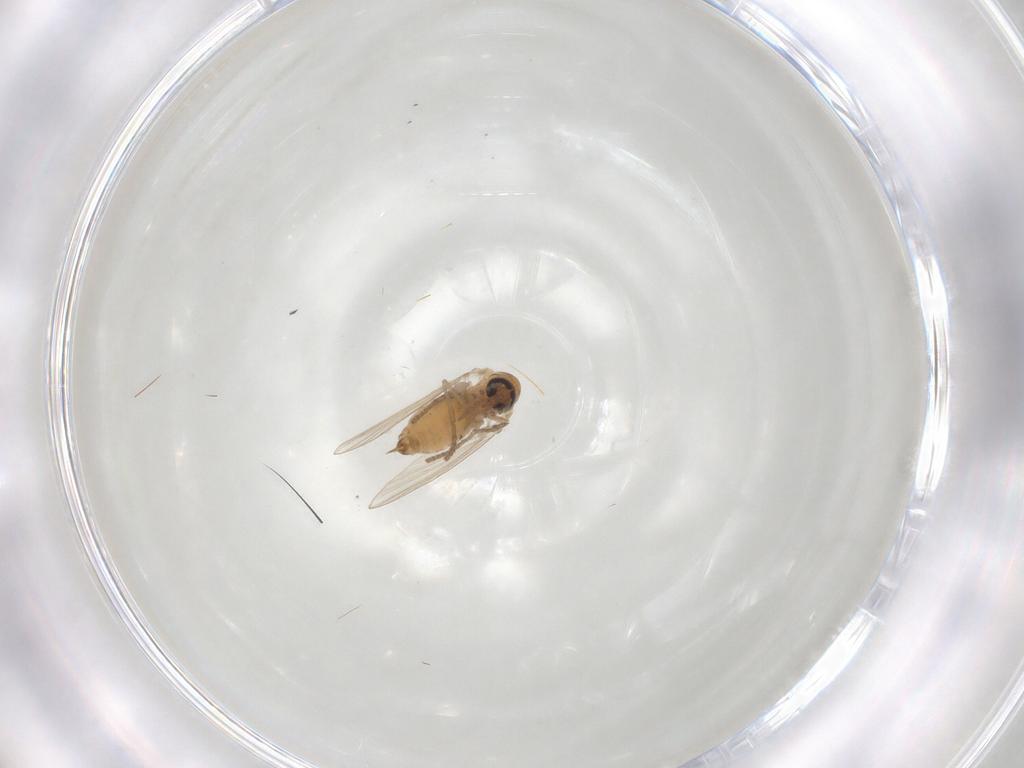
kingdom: Animalia
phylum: Arthropoda
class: Insecta
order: Diptera
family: Psychodidae
